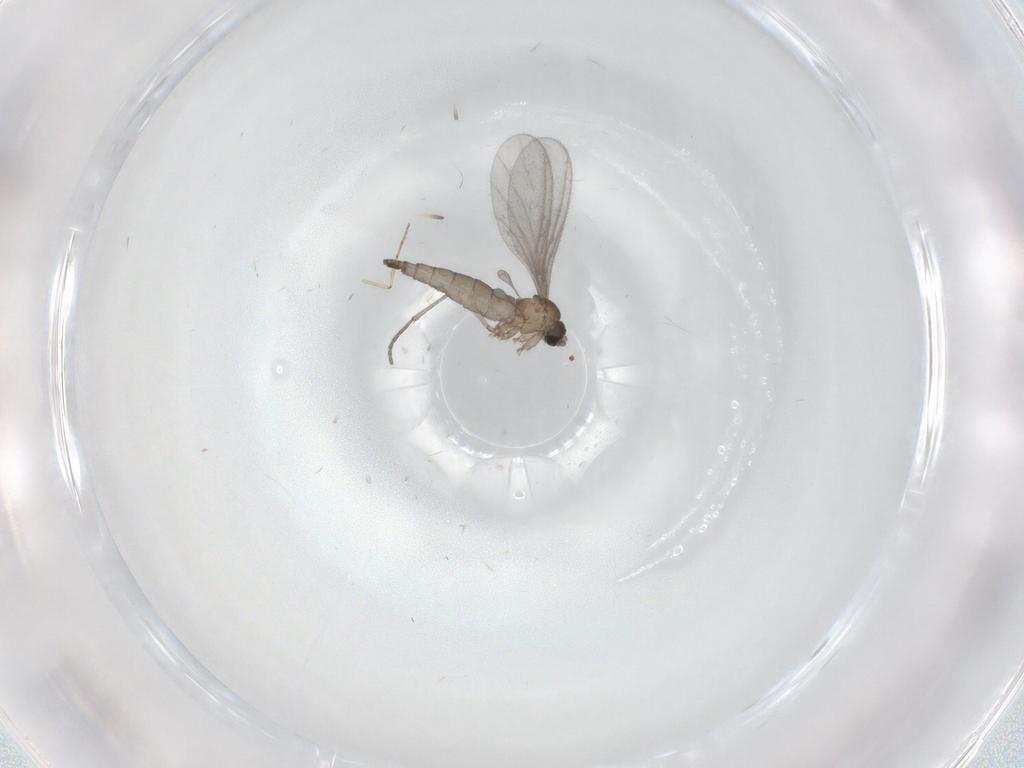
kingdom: Animalia
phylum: Arthropoda
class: Insecta
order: Diptera
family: Sciaridae
